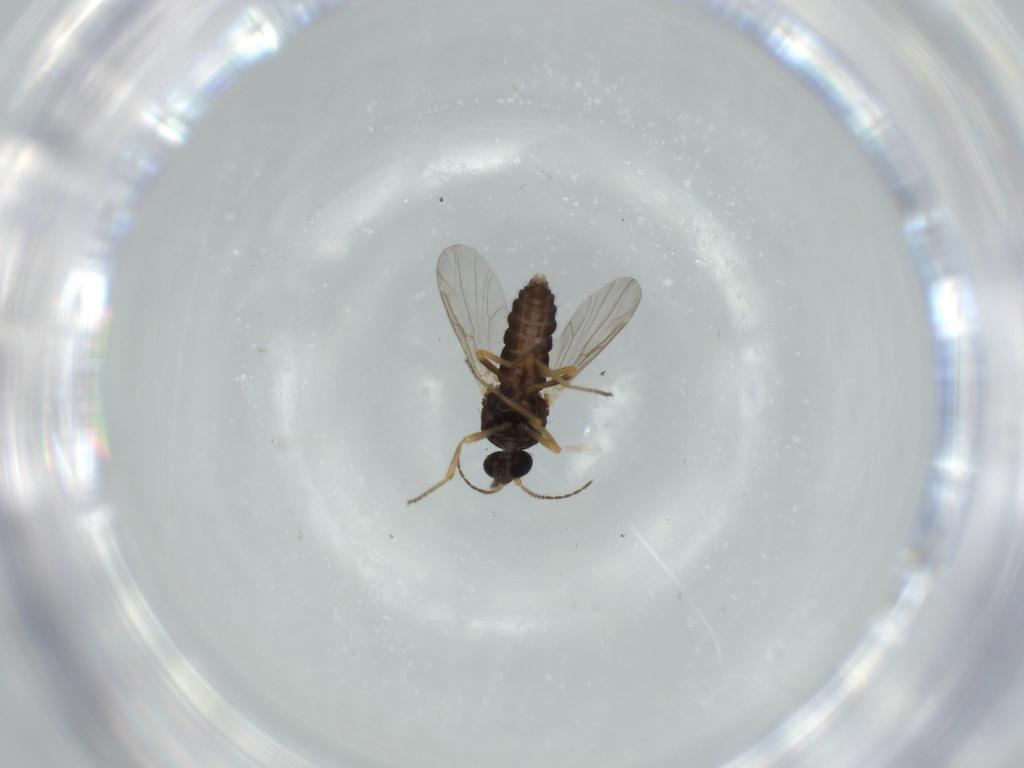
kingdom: Animalia
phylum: Arthropoda
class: Insecta
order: Diptera
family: Ceratopogonidae
